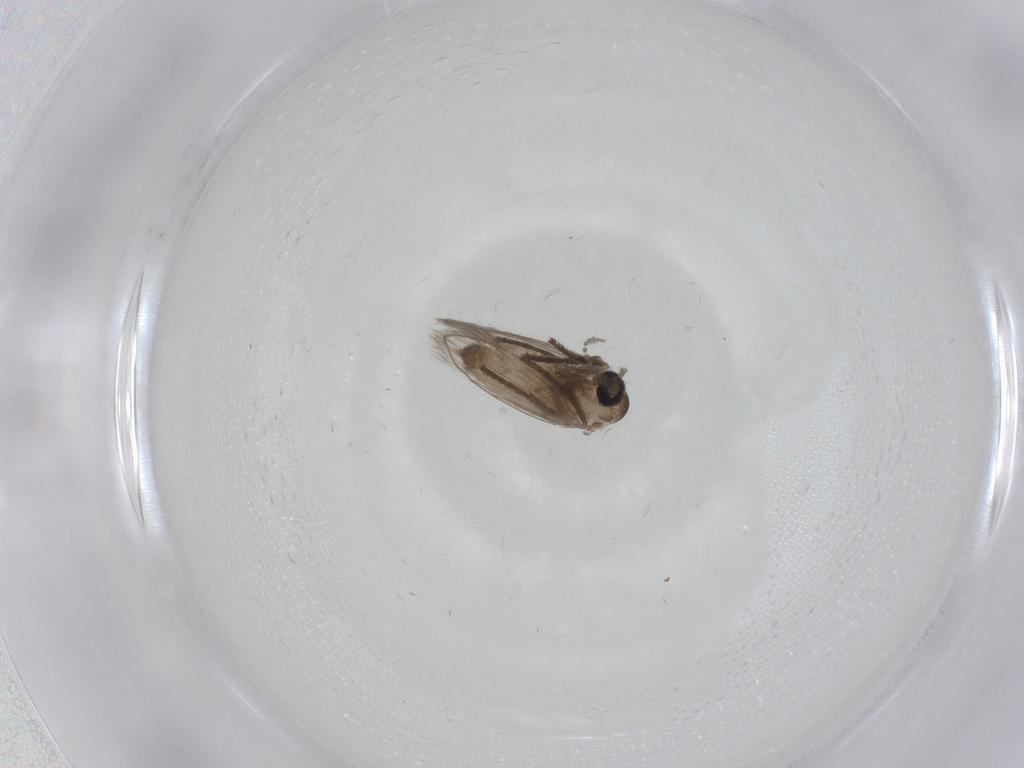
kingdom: Animalia
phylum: Arthropoda
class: Insecta
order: Diptera
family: Psychodidae
